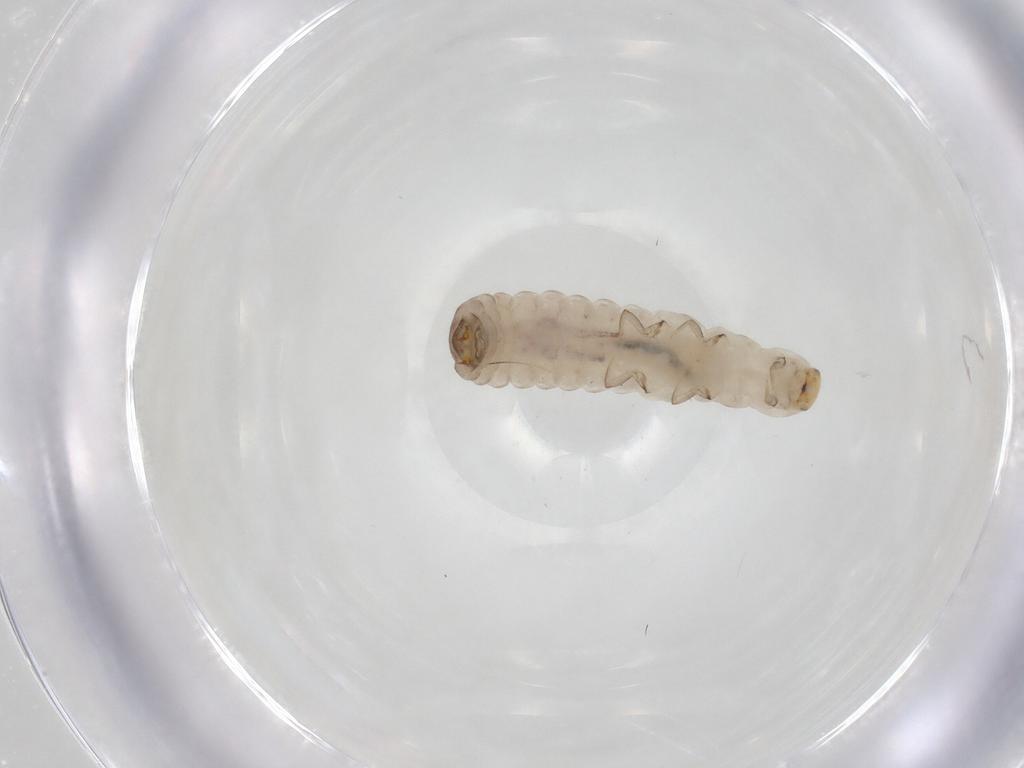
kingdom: Animalia
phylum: Arthropoda
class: Insecta
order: Coleoptera
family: Melyridae
